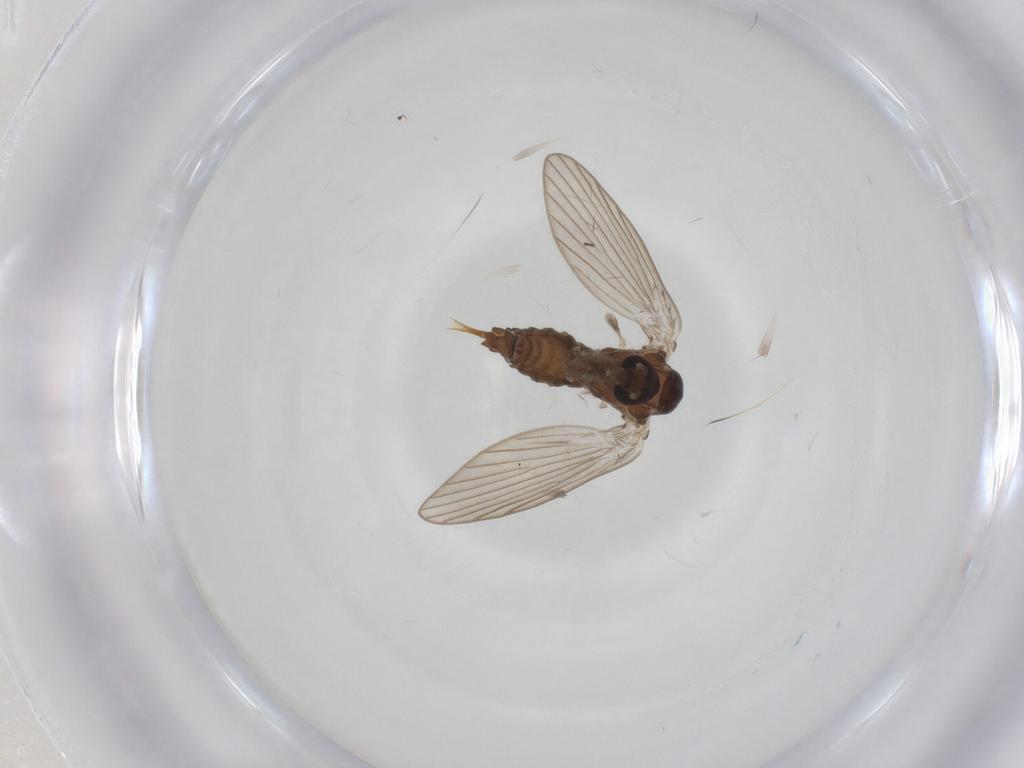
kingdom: Animalia
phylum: Arthropoda
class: Insecta
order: Diptera
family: Psychodidae
